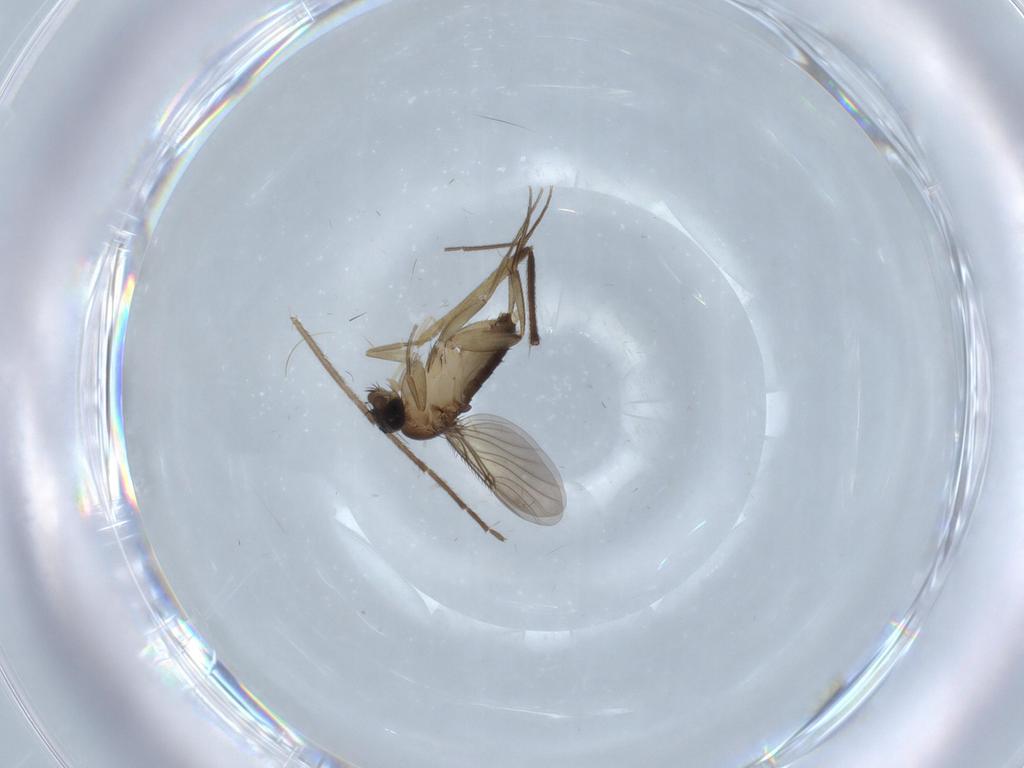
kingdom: Animalia
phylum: Arthropoda
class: Insecta
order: Diptera
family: Phoridae
